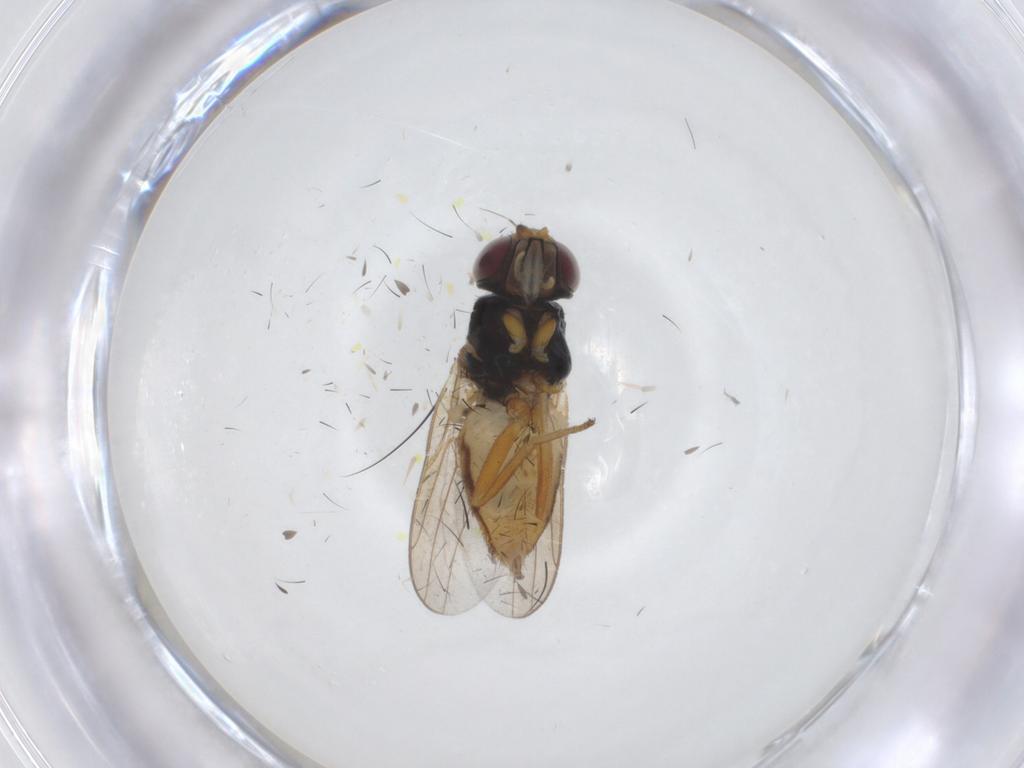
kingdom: Animalia
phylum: Arthropoda
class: Insecta
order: Diptera
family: Chloropidae
